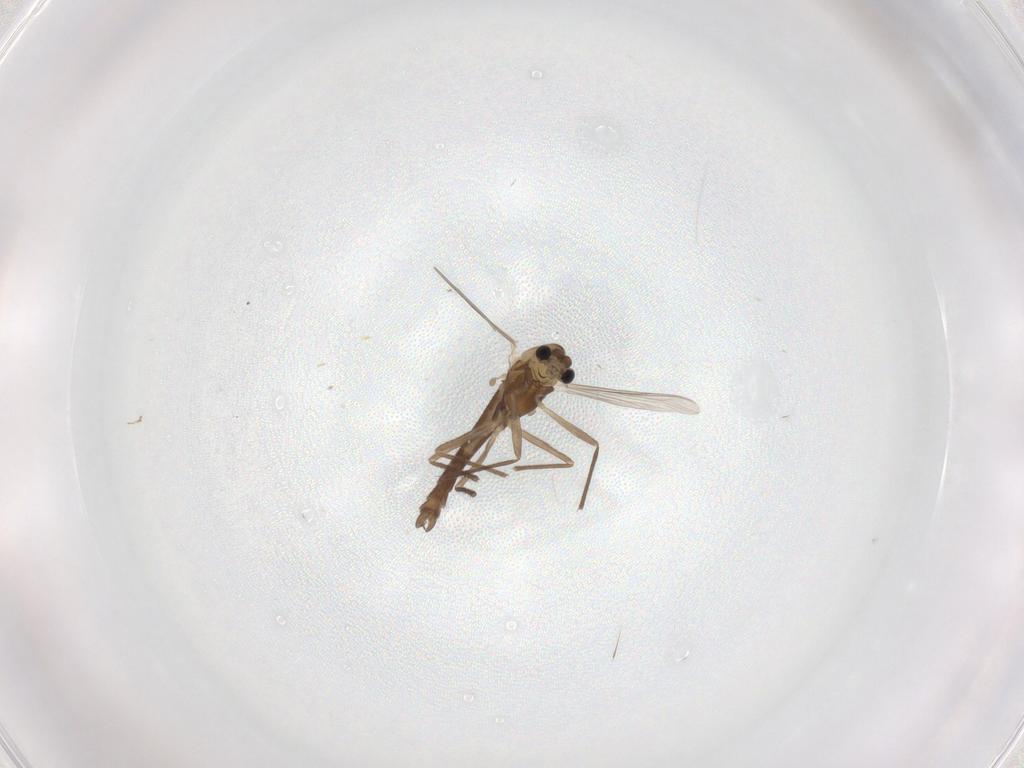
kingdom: Animalia
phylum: Arthropoda
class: Insecta
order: Diptera
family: Chironomidae
